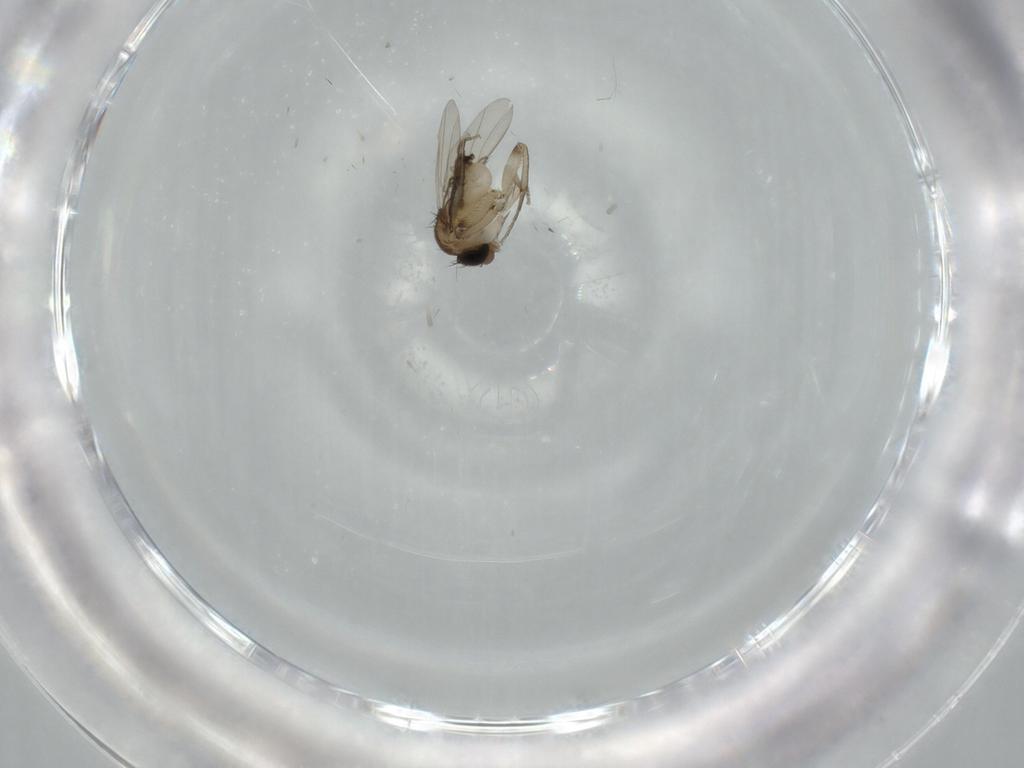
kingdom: Animalia
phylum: Arthropoda
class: Insecta
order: Diptera
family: Phoridae
